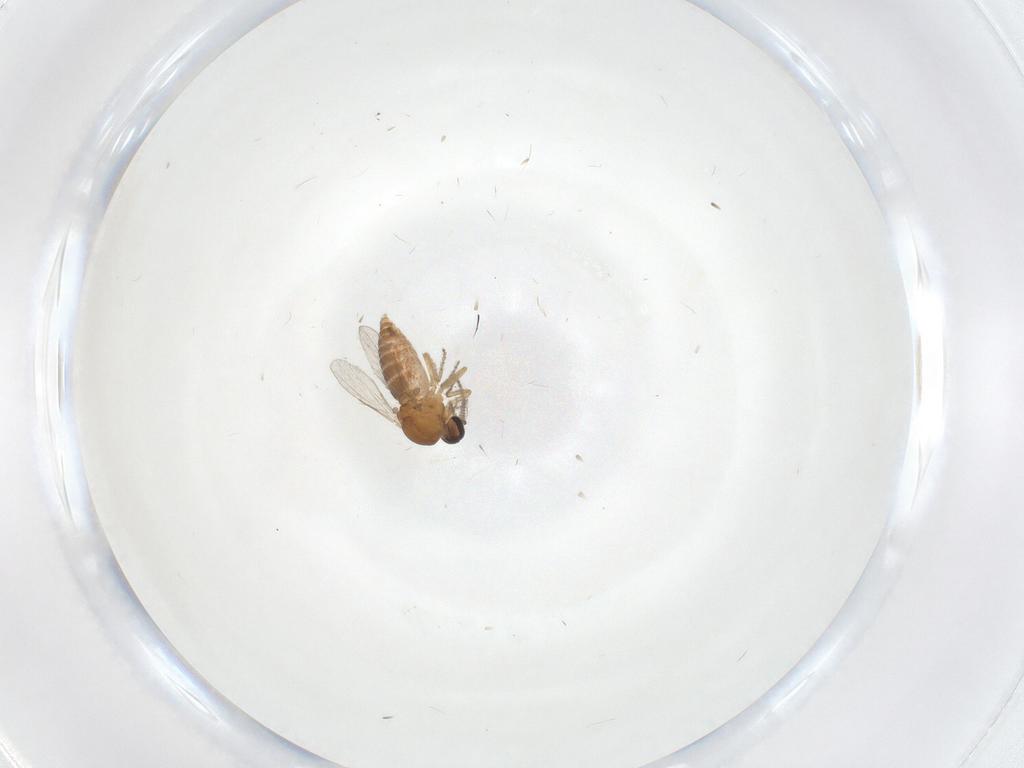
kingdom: Animalia
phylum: Arthropoda
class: Insecta
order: Diptera
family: Ceratopogonidae
